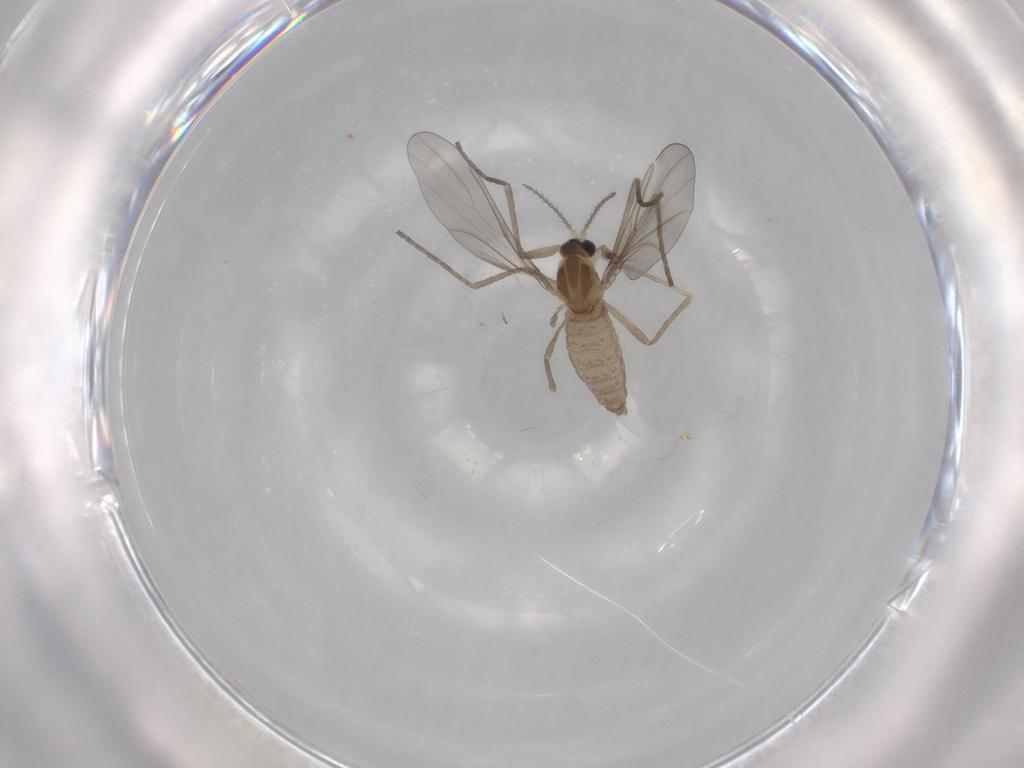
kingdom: Animalia
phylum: Arthropoda
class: Insecta
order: Diptera
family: Cecidomyiidae
